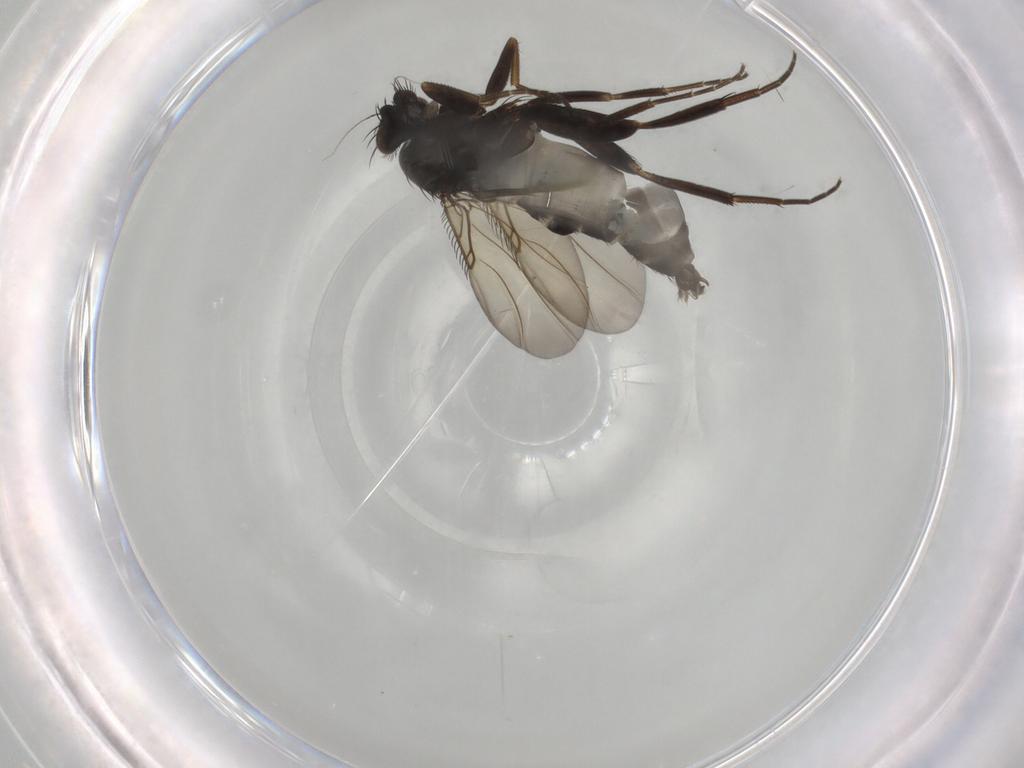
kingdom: Animalia
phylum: Arthropoda
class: Insecta
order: Diptera
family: Phoridae
